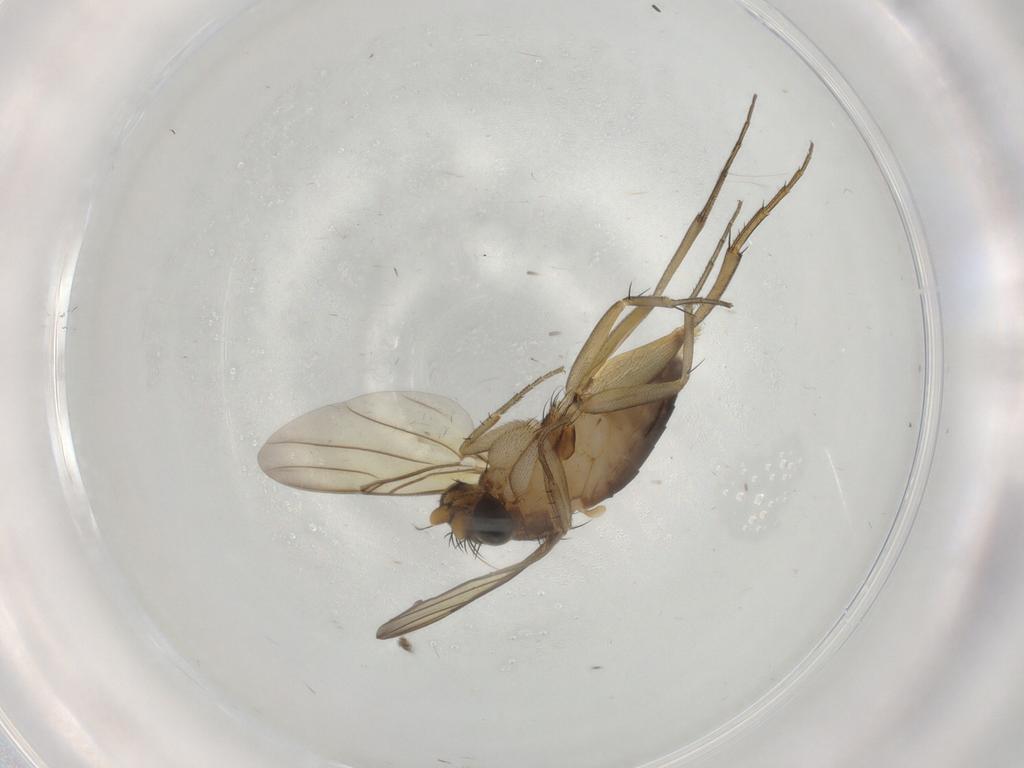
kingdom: Animalia
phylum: Arthropoda
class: Insecta
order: Diptera
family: Phoridae
